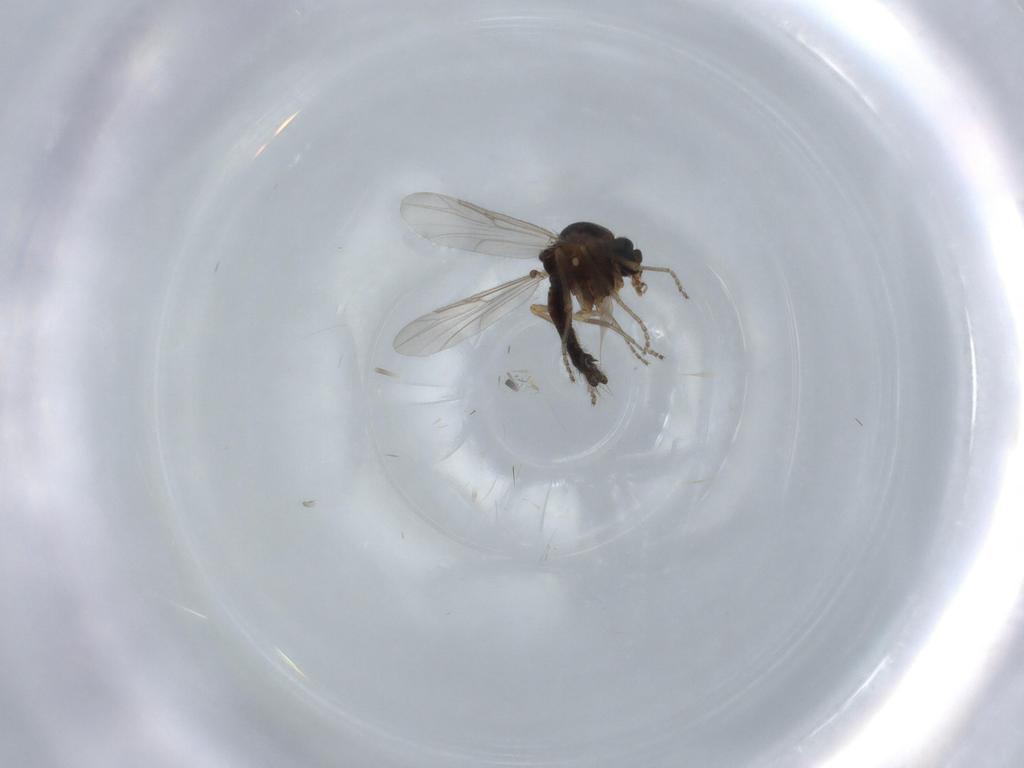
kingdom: Animalia
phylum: Arthropoda
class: Insecta
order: Diptera
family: Ceratopogonidae
